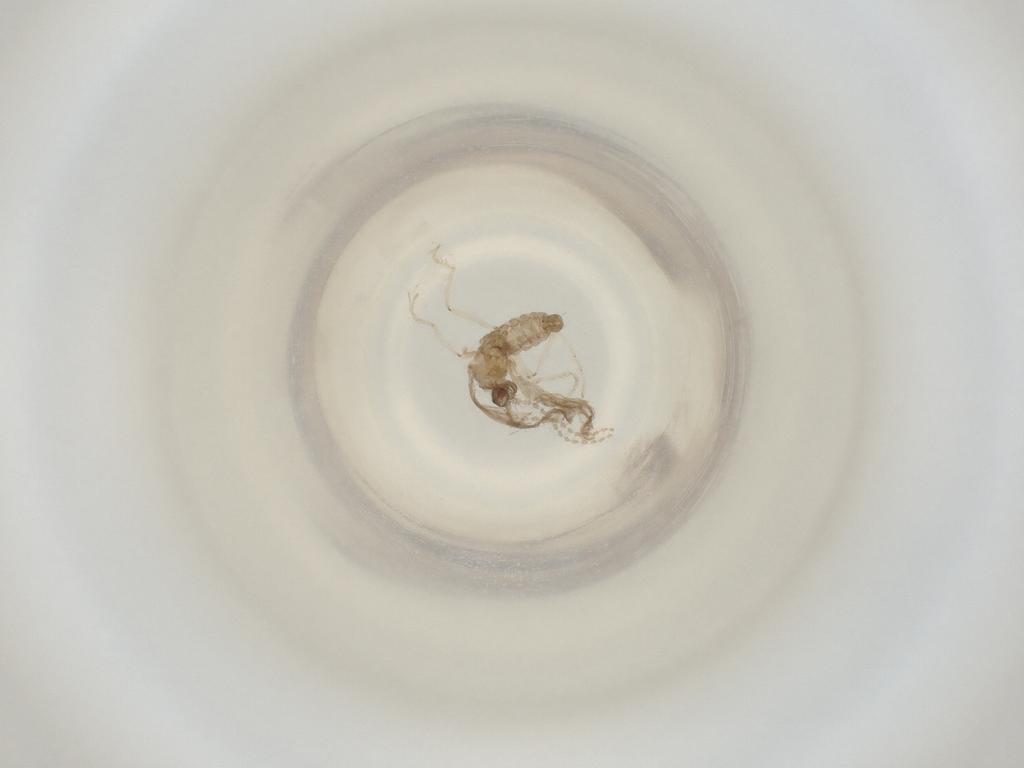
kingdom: Animalia
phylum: Arthropoda
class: Insecta
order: Diptera
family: Cecidomyiidae
